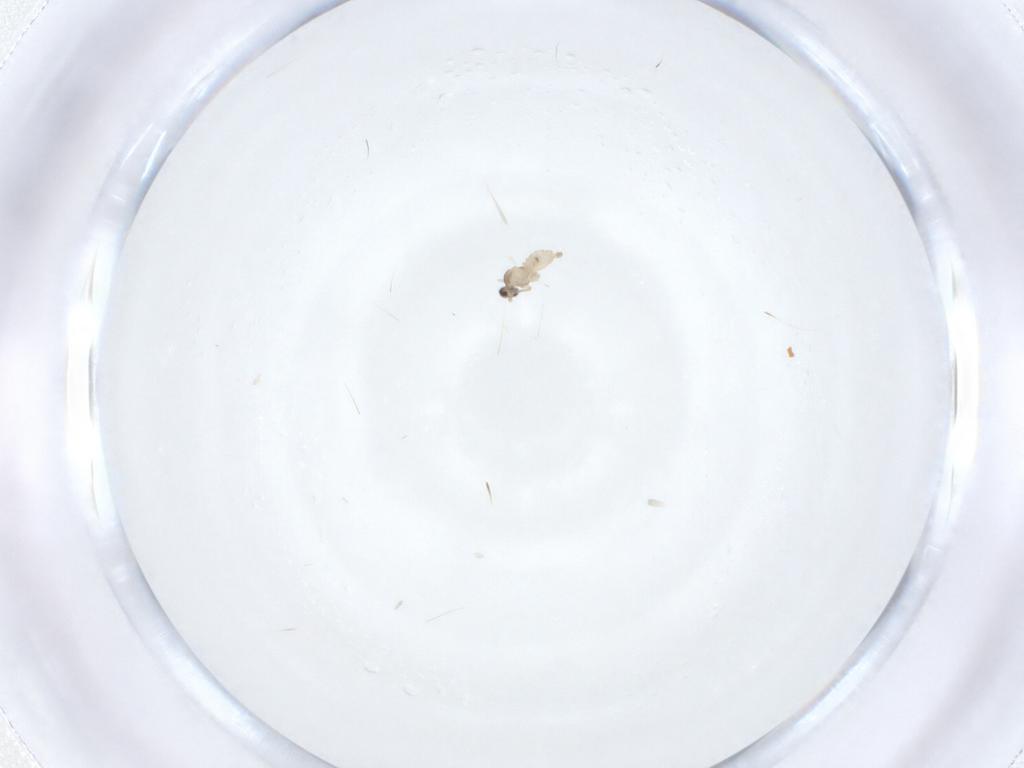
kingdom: Animalia
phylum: Arthropoda
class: Insecta
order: Diptera
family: Cecidomyiidae
